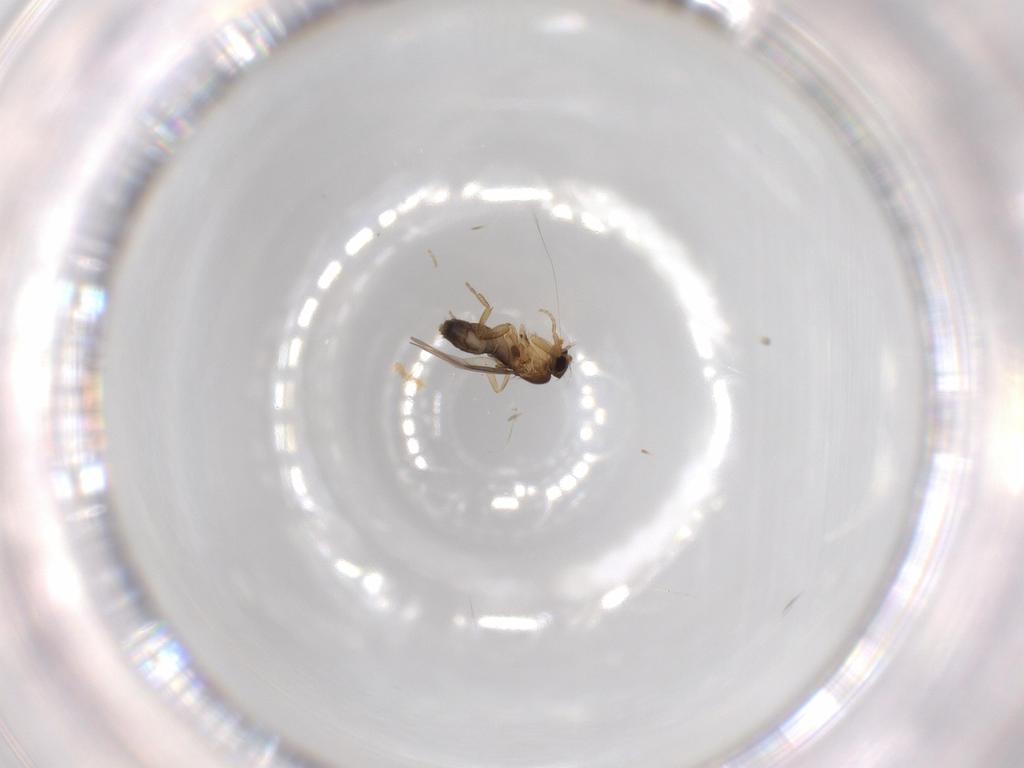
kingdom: Animalia
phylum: Arthropoda
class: Insecta
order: Diptera
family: Phoridae
